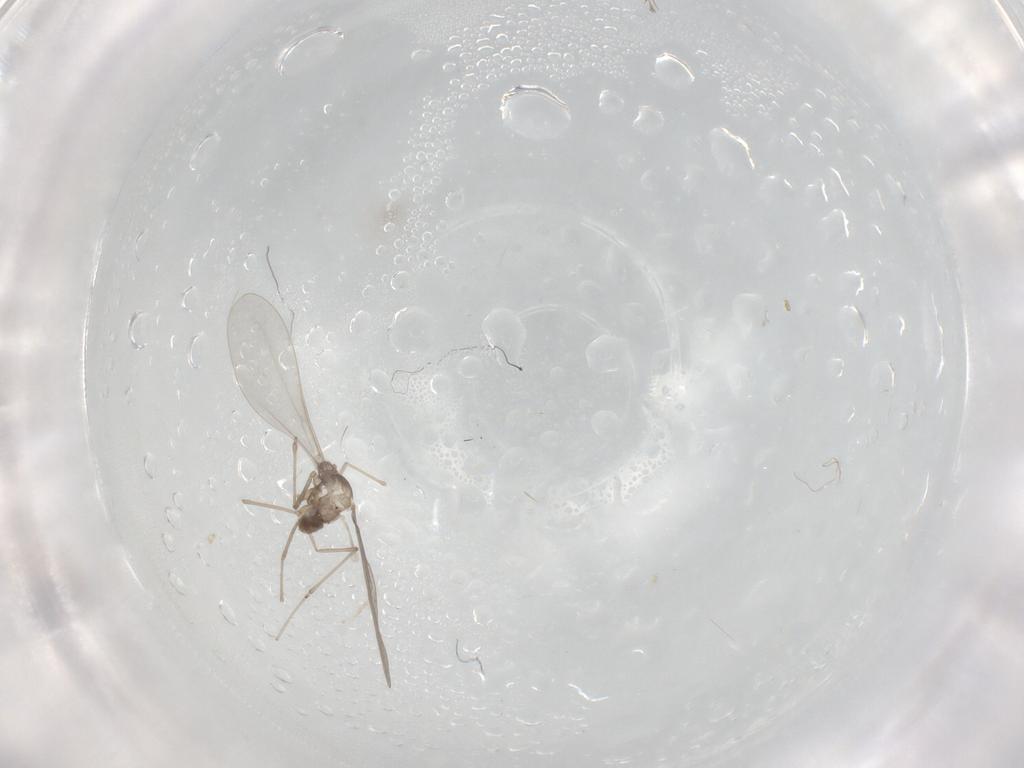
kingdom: Animalia
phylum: Arthropoda
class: Insecta
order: Diptera
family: Cecidomyiidae
